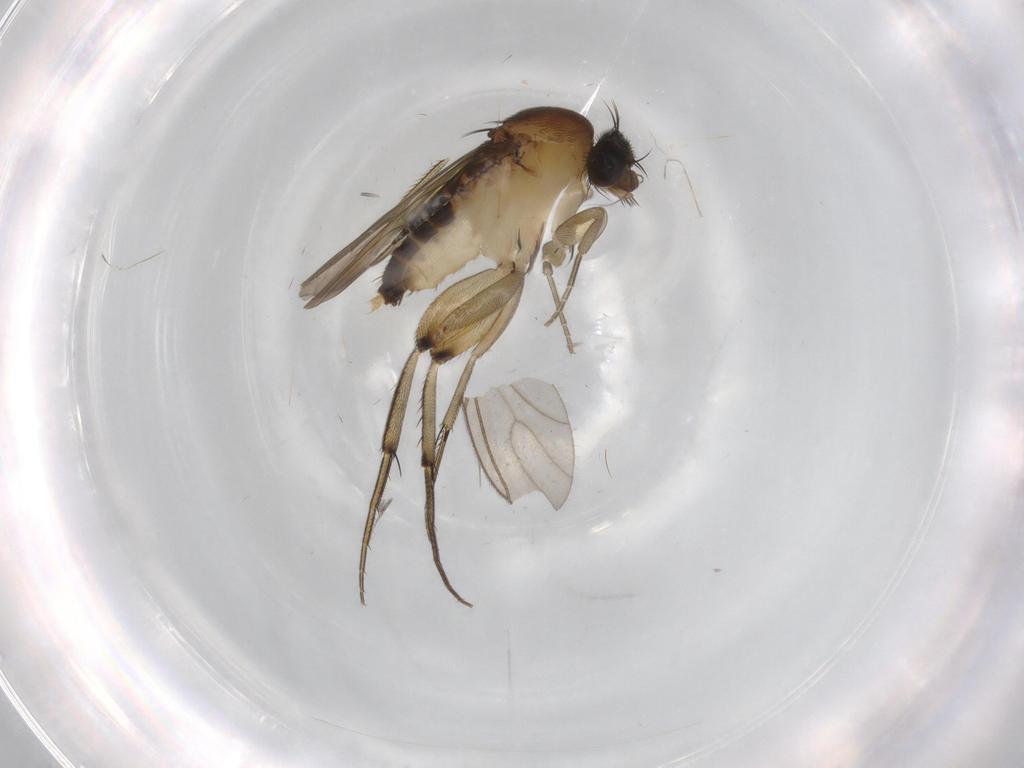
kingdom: Animalia
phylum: Arthropoda
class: Insecta
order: Diptera
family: Phoridae
